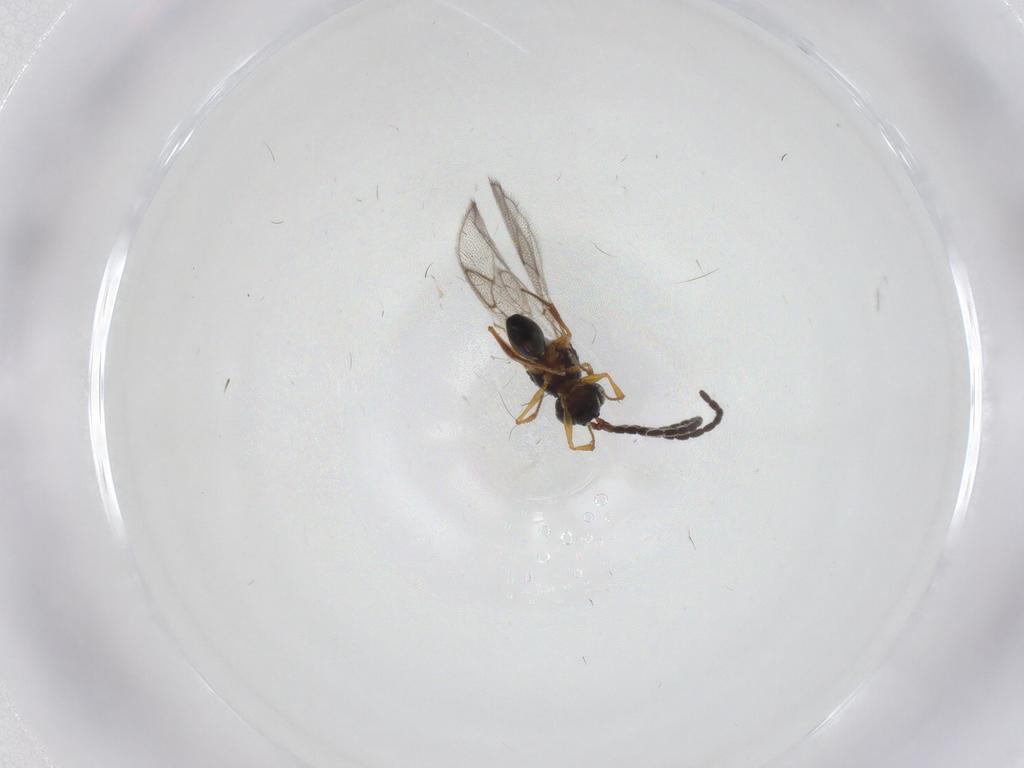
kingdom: Animalia
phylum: Arthropoda
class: Insecta
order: Hymenoptera
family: Figitidae
